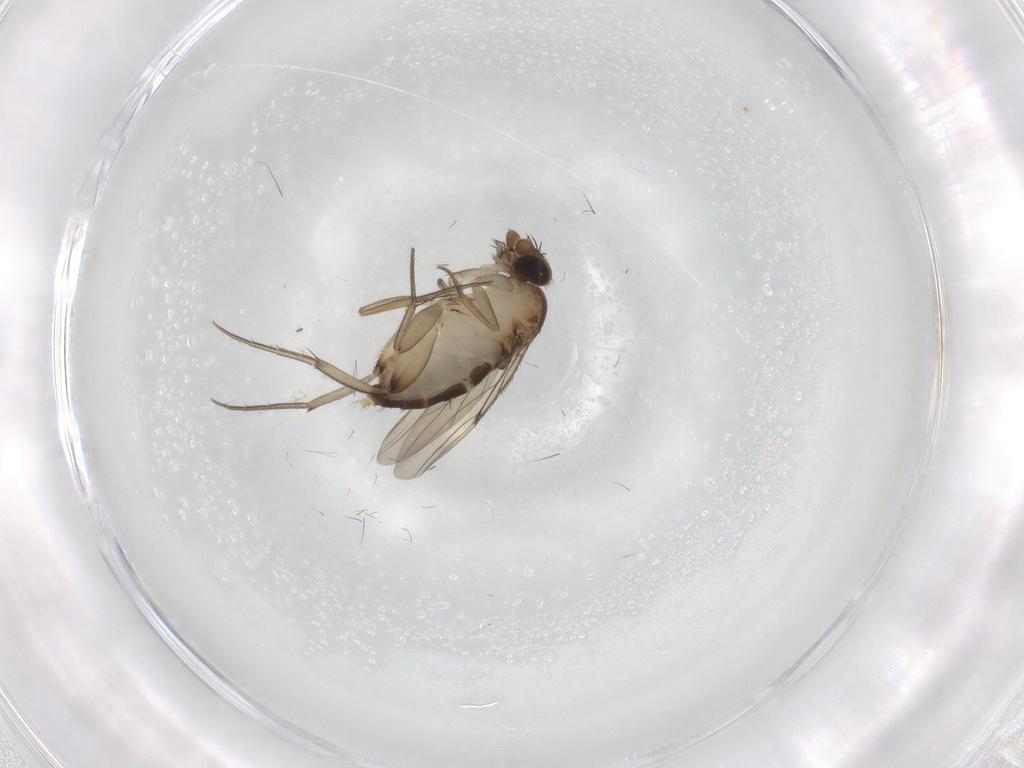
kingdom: Animalia
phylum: Arthropoda
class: Insecta
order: Diptera
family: Phoridae
